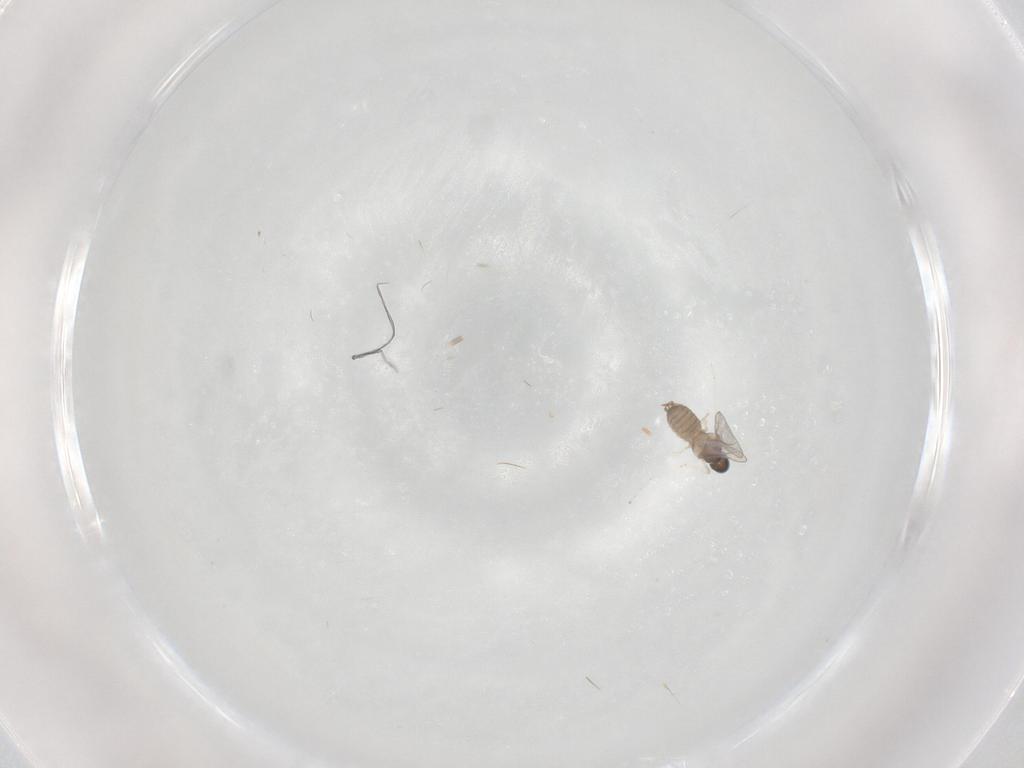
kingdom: Animalia
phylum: Arthropoda
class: Insecta
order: Diptera
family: Cecidomyiidae
